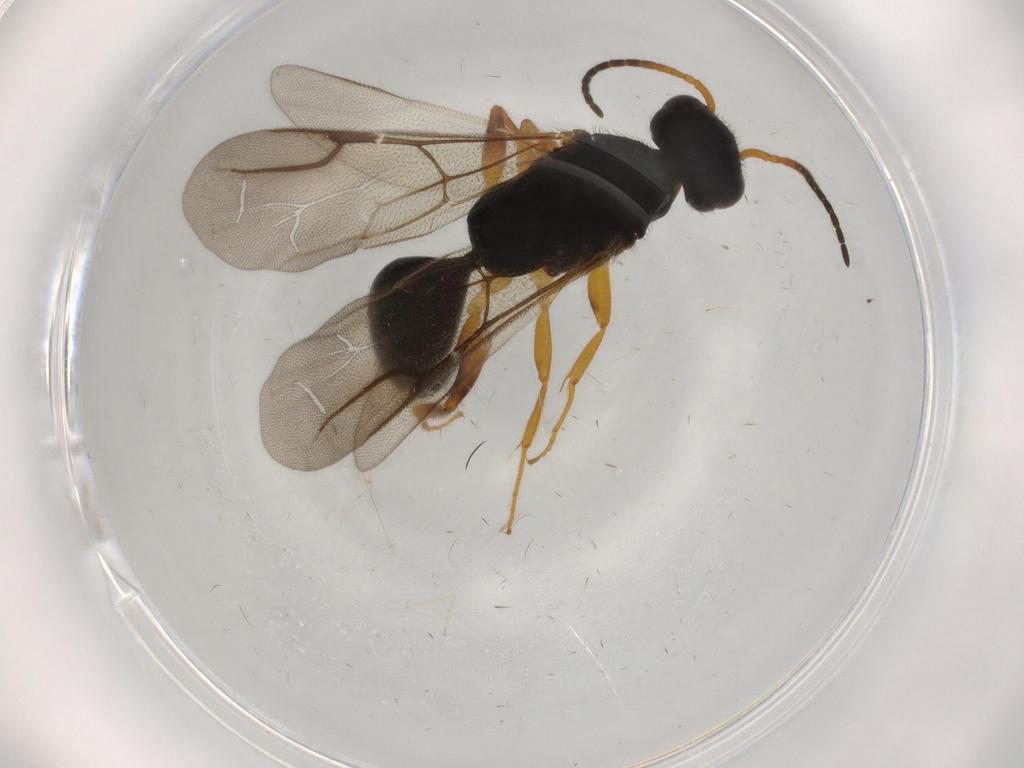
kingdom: Animalia
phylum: Arthropoda
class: Insecta
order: Hymenoptera
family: Bethylidae
